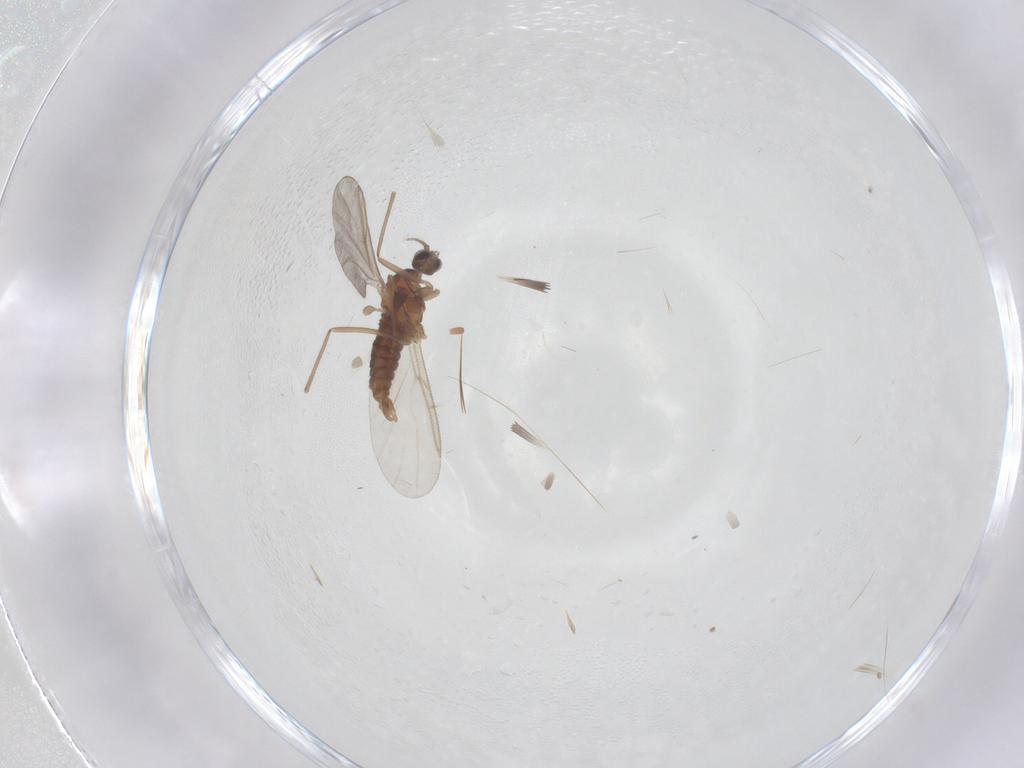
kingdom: Animalia
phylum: Arthropoda
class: Insecta
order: Diptera
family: Cecidomyiidae
